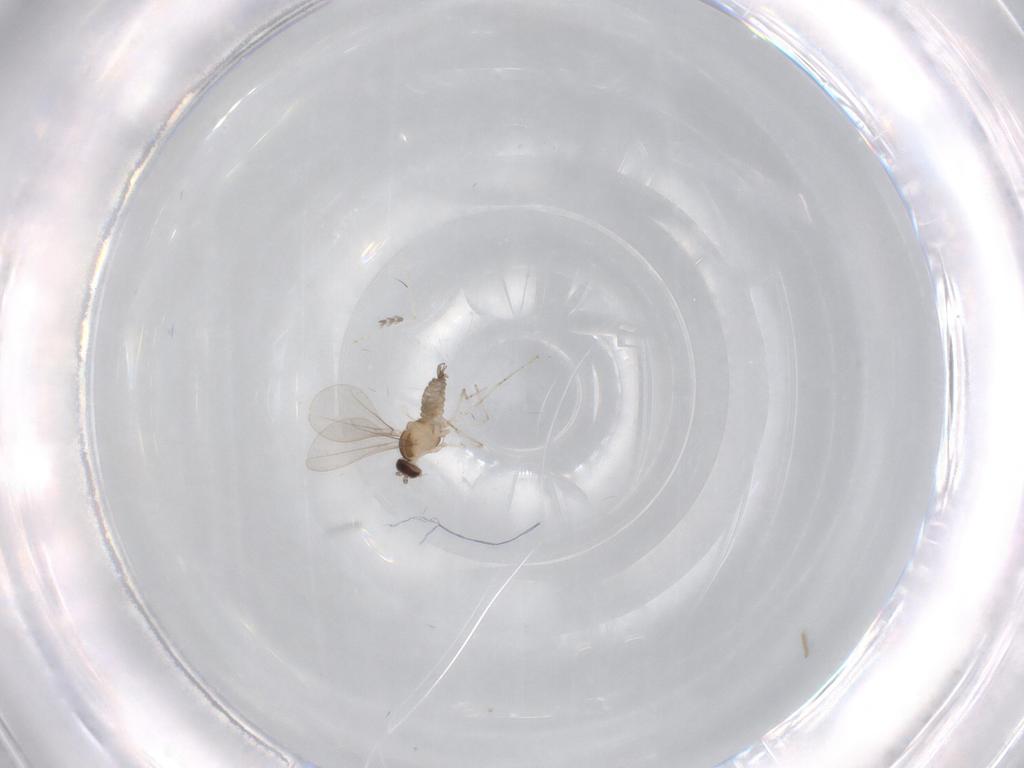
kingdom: Animalia
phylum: Arthropoda
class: Insecta
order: Diptera
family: Cecidomyiidae
